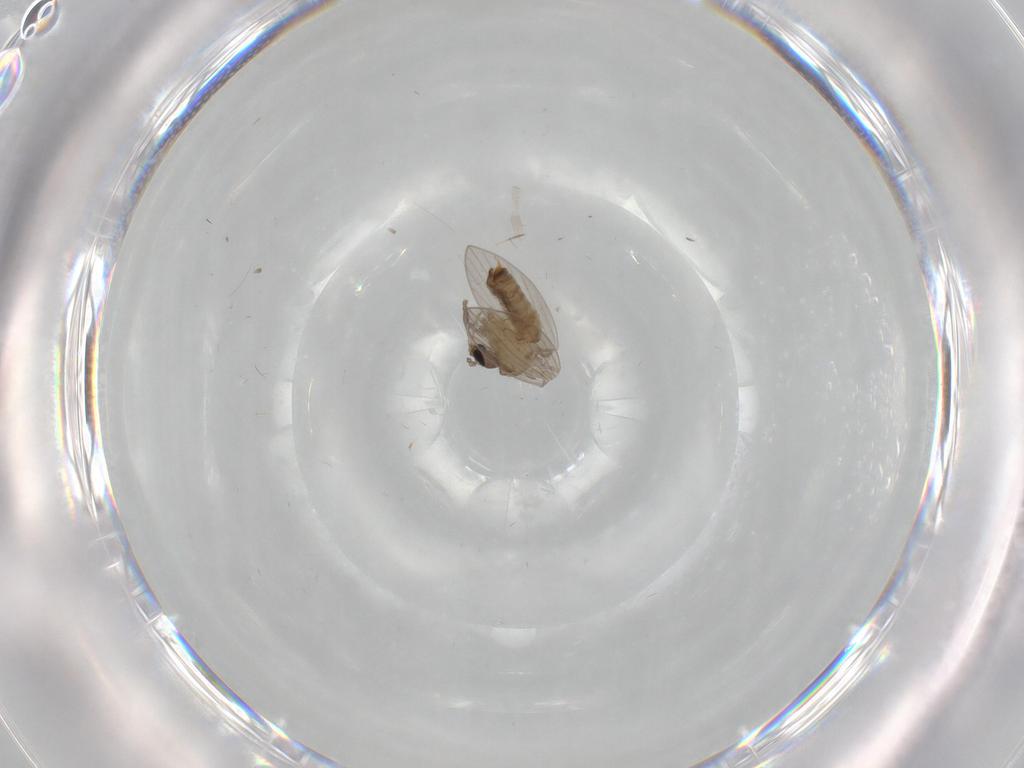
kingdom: Animalia
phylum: Arthropoda
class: Insecta
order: Diptera
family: Psychodidae
